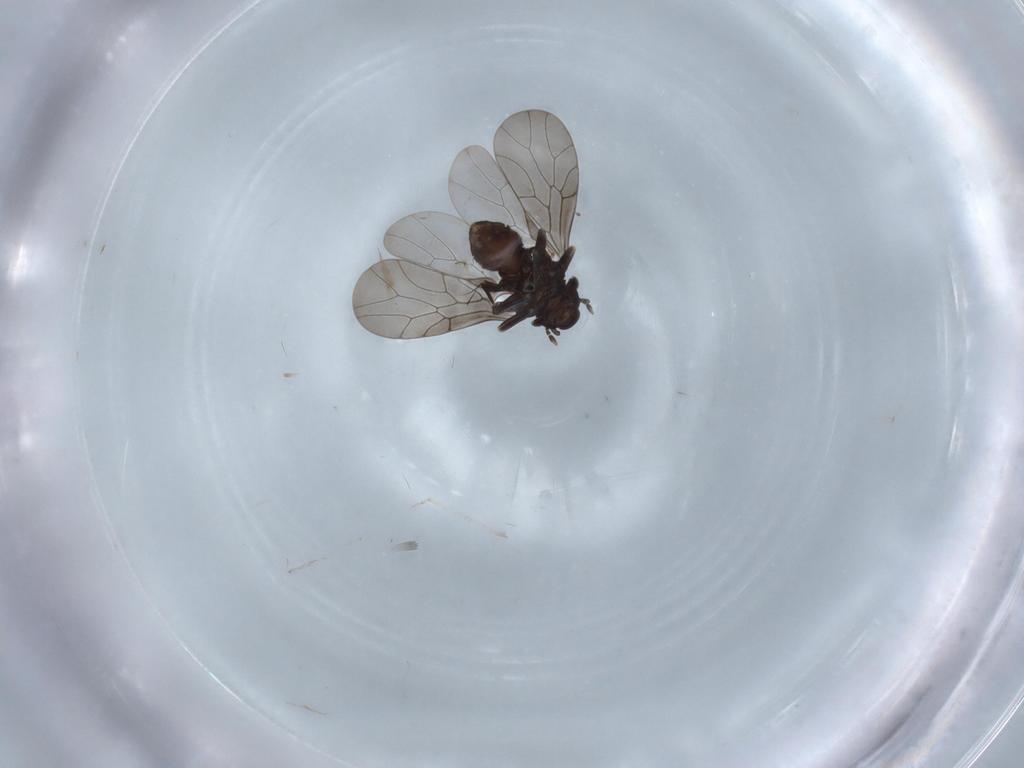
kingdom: Animalia
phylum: Arthropoda
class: Insecta
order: Psocodea
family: Lepidopsocidae
